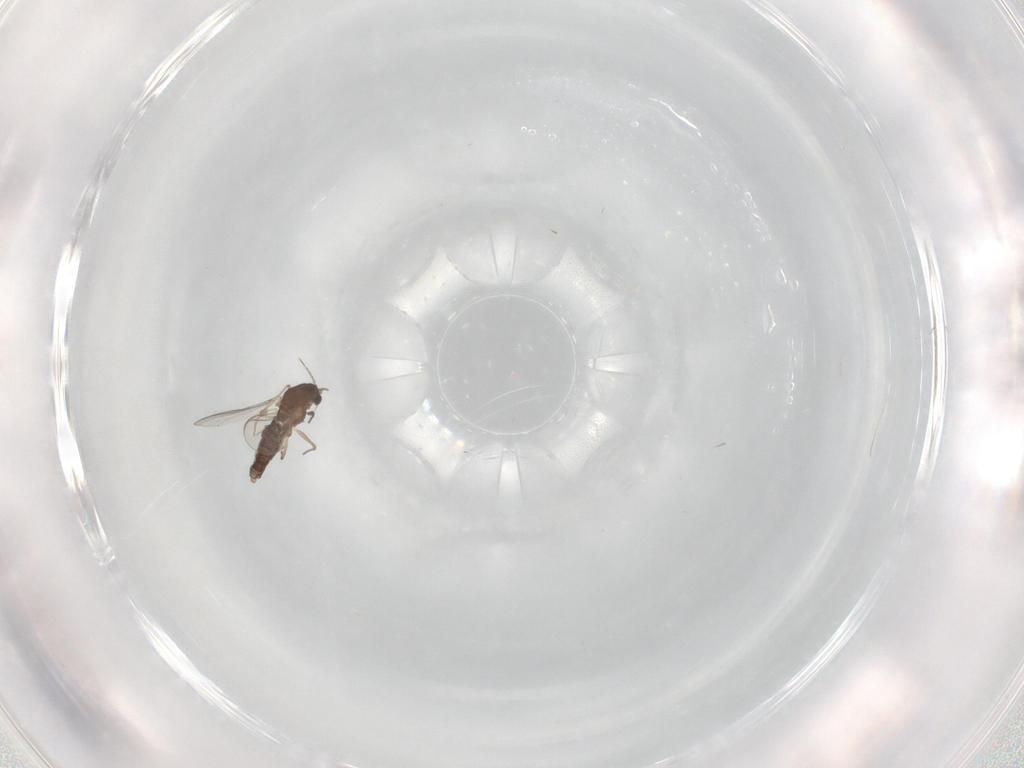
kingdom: Animalia
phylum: Arthropoda
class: Insecta
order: Diptera
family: Chironomidae
